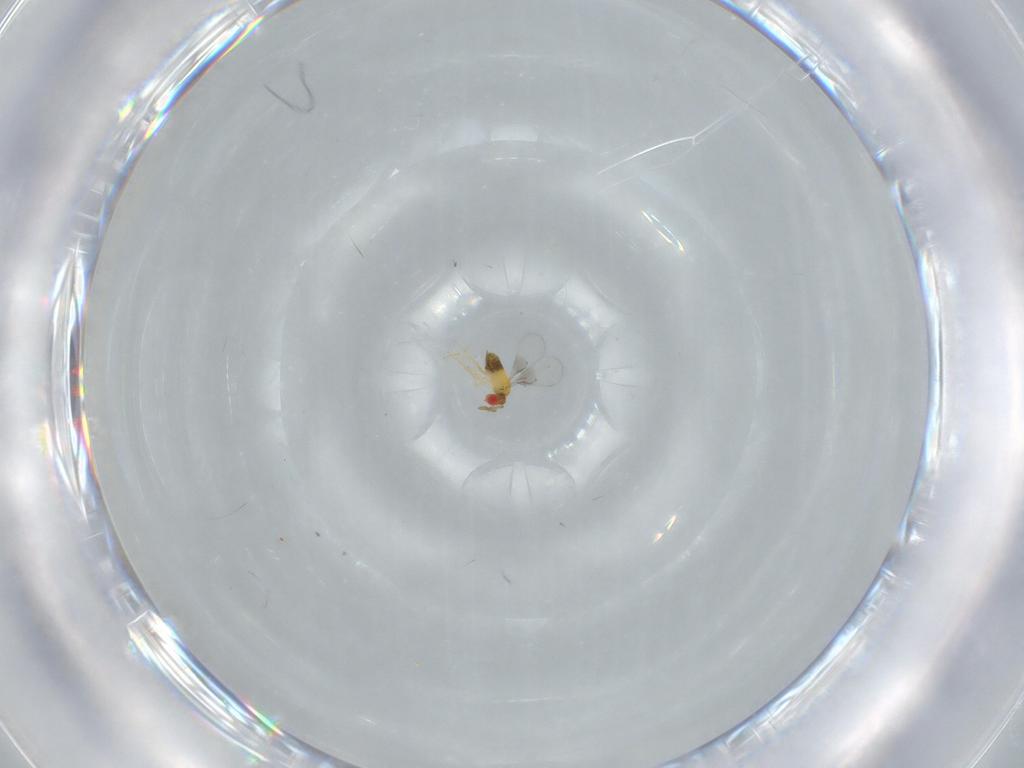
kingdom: Animalia
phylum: Arthropoda
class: Insecta
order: Hymenoptera
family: Trichogrammatidae
